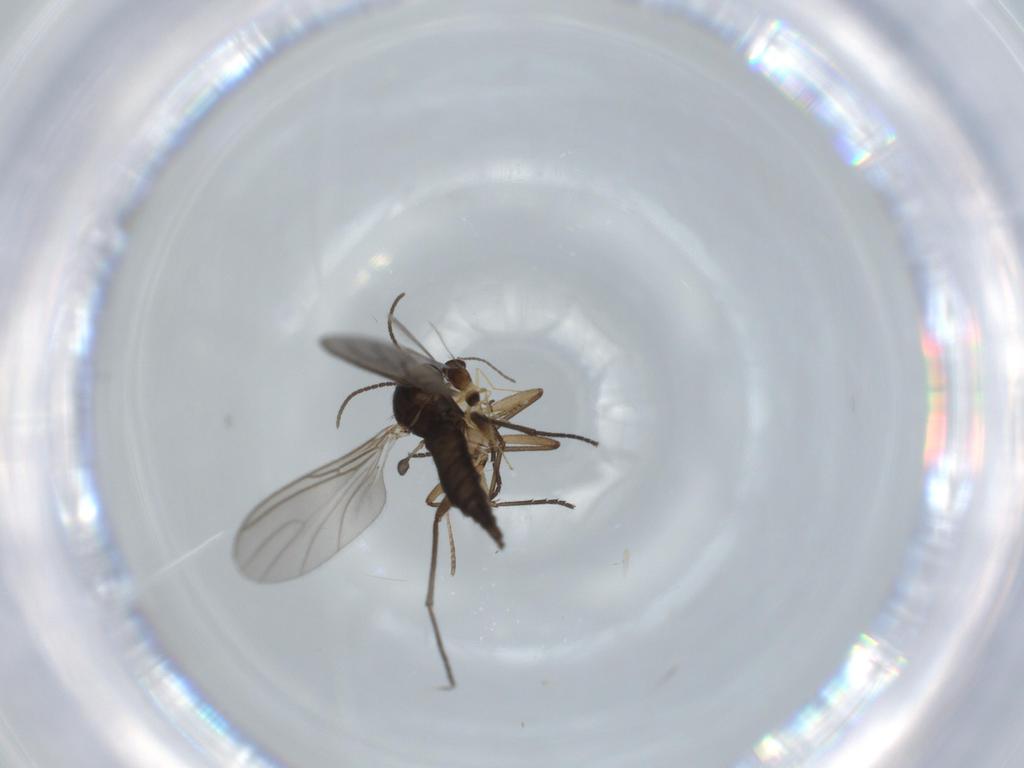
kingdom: Animalia
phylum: Arthropoda
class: Insecta
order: Diptera
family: Sciaridae
